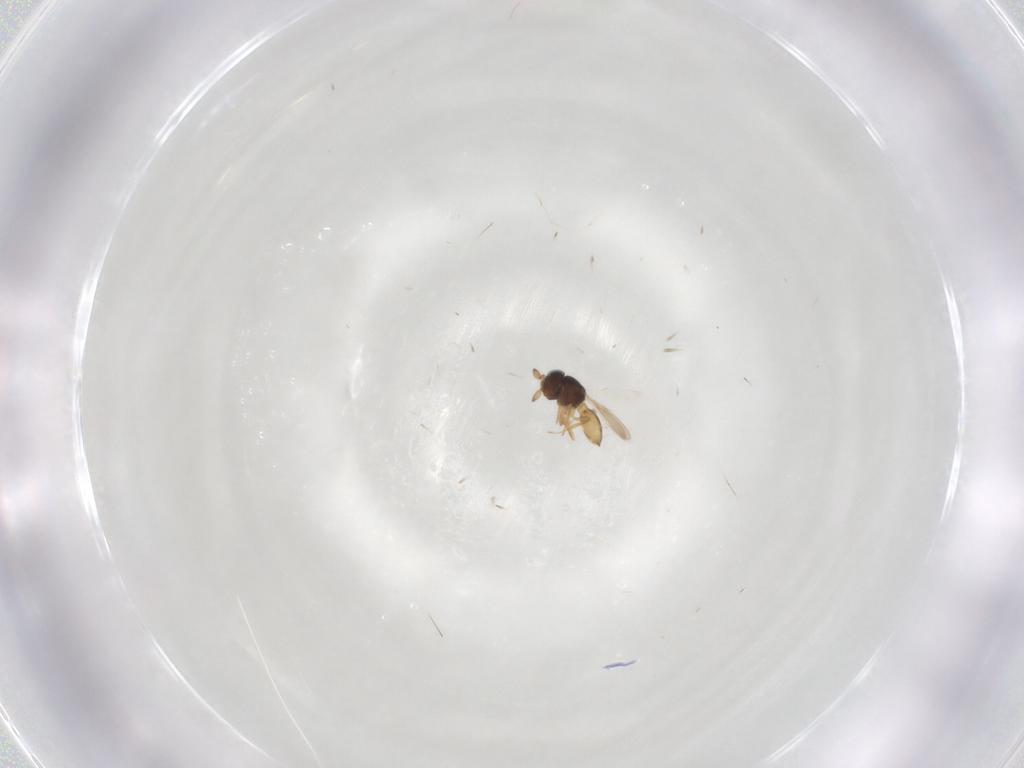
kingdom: Animalia
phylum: Arthropoda
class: Insecta
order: Hymenoptera
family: Scelionidae
